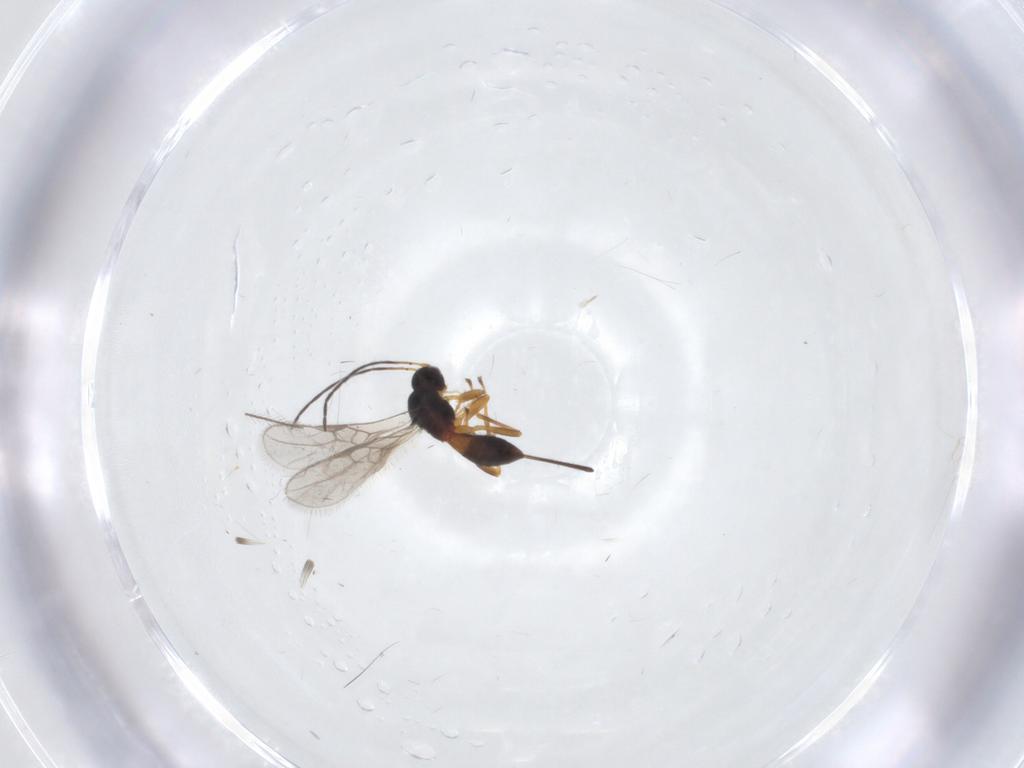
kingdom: Animalia
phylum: Arthropoda
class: Insecta
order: Hymenoptera
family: Braconidae
